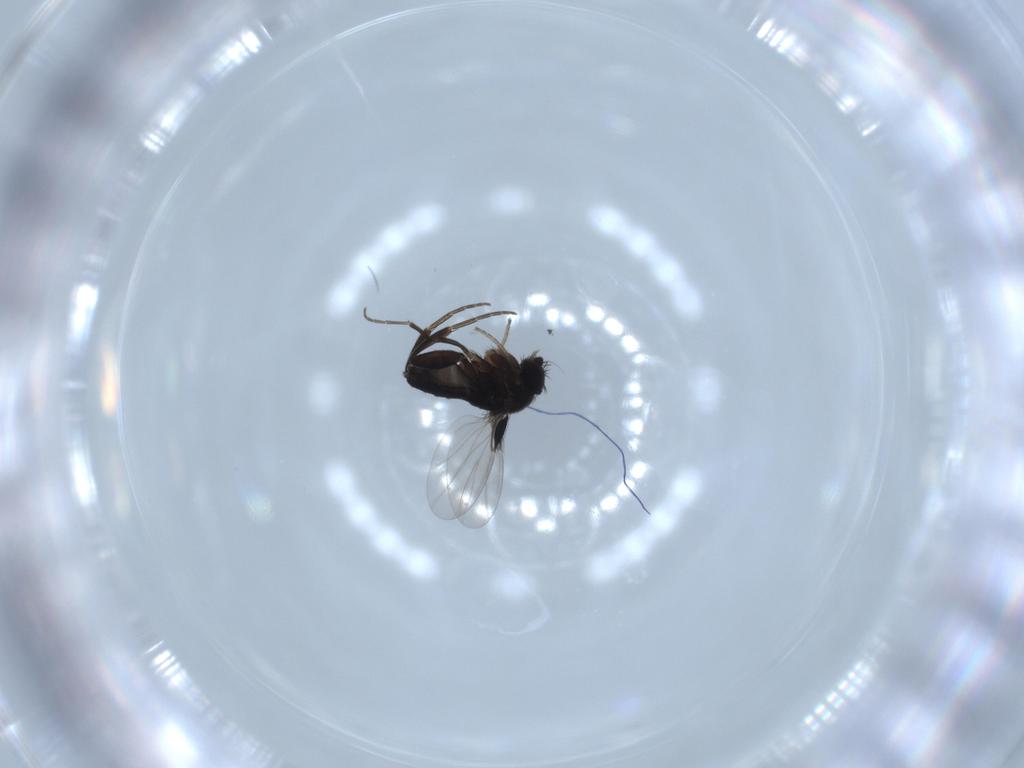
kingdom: Animalia
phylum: Arthropoda
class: Insecta
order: Diptera
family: Phoridae
